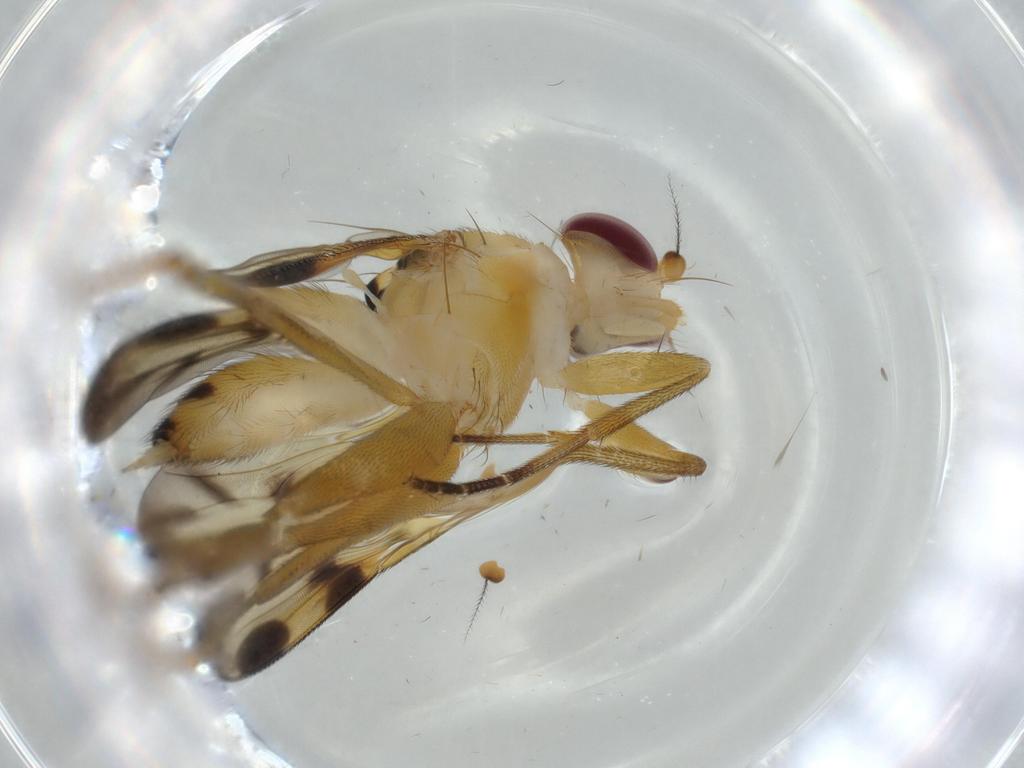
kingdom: Animalia
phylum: Arthropoda
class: Insecta
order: Diptera
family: Clusiidae
